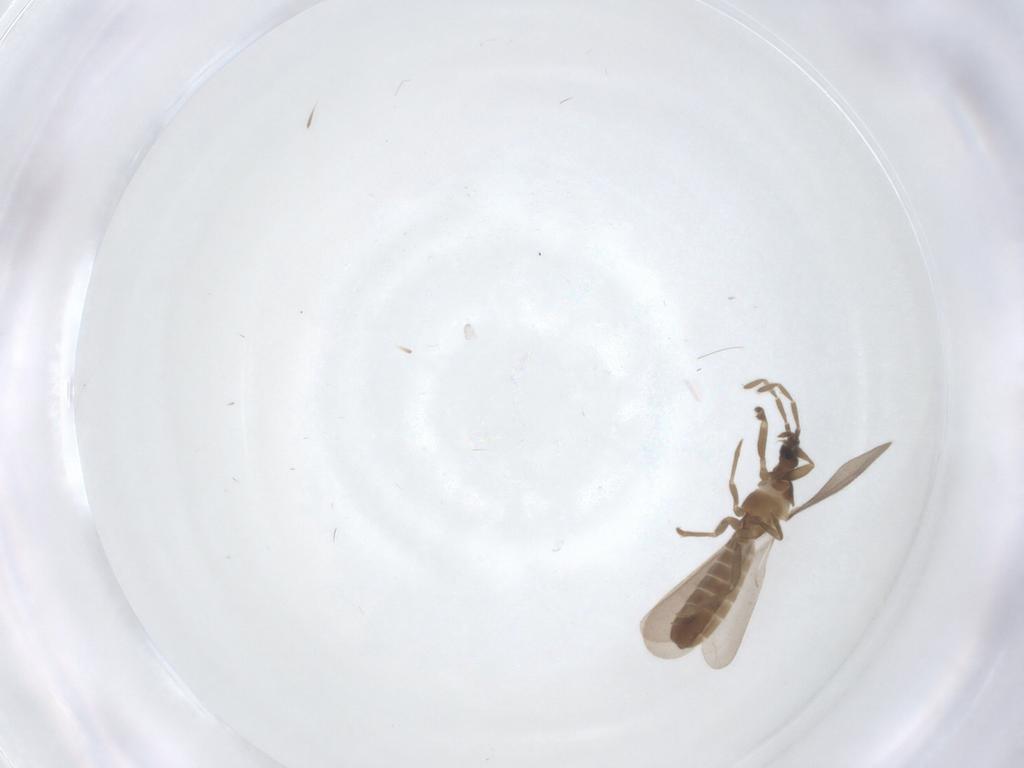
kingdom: Animalia
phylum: Arthropoda
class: Insecta
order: Hemiptera
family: Enicocephalidae
